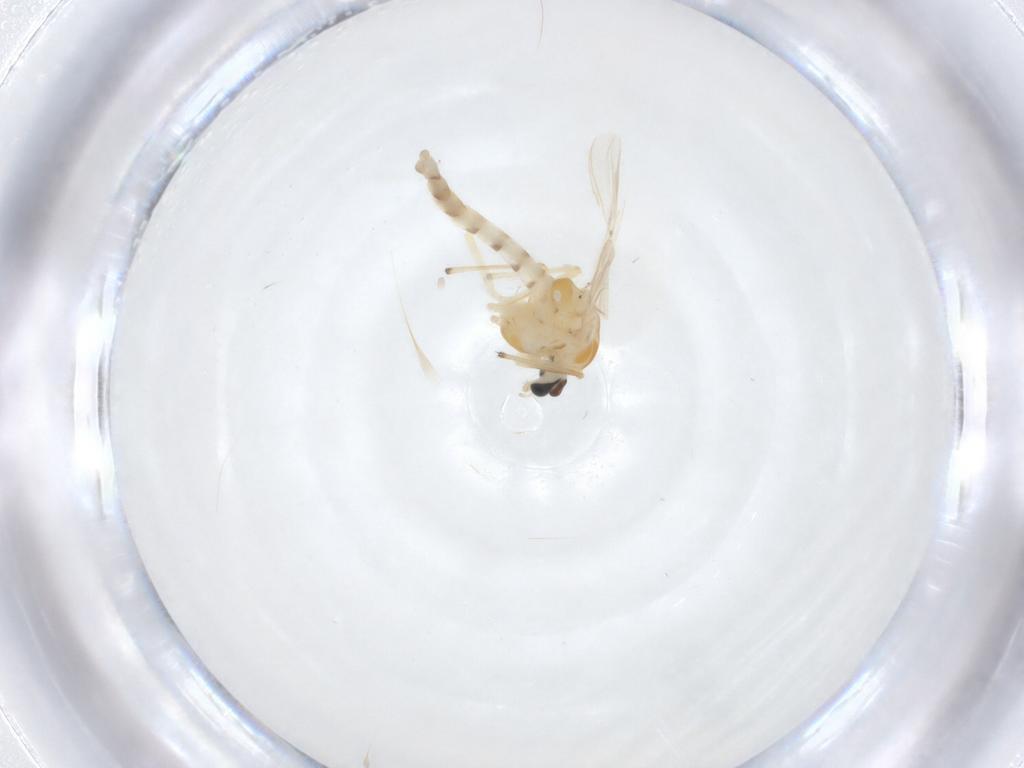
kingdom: Animalia
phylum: Arthropoda
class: Insecta
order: Diptera
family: Chironomidae
